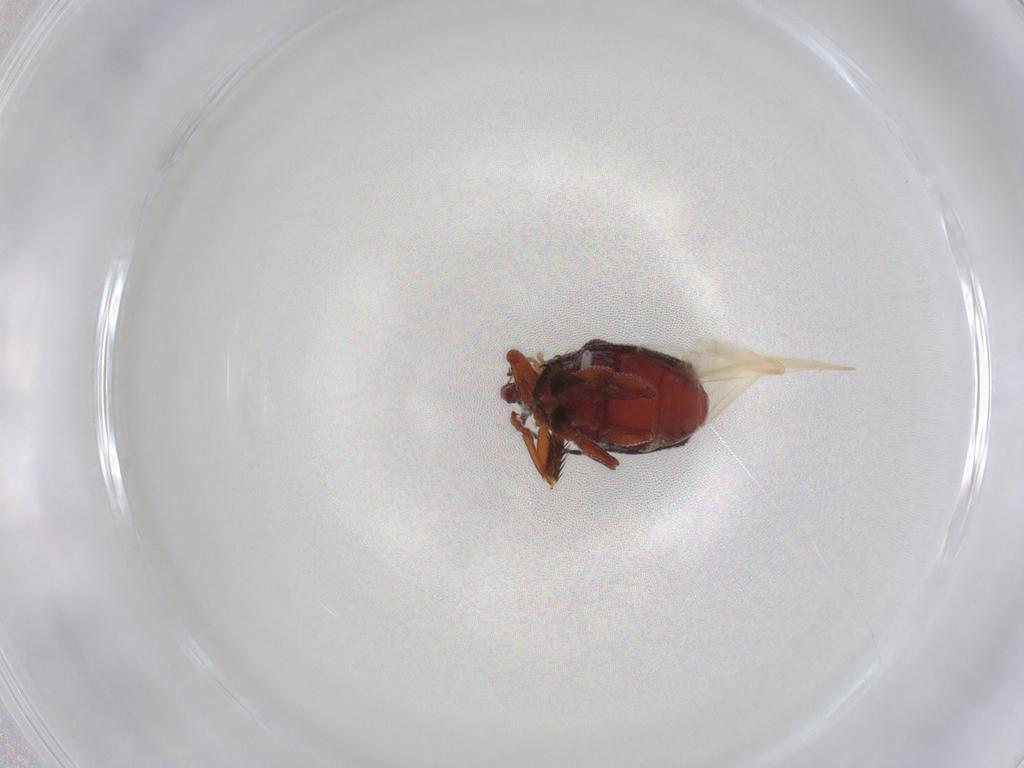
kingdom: Animalia
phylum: Arthropoda
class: Insecta
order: Coleoptera
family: Curculionidae
